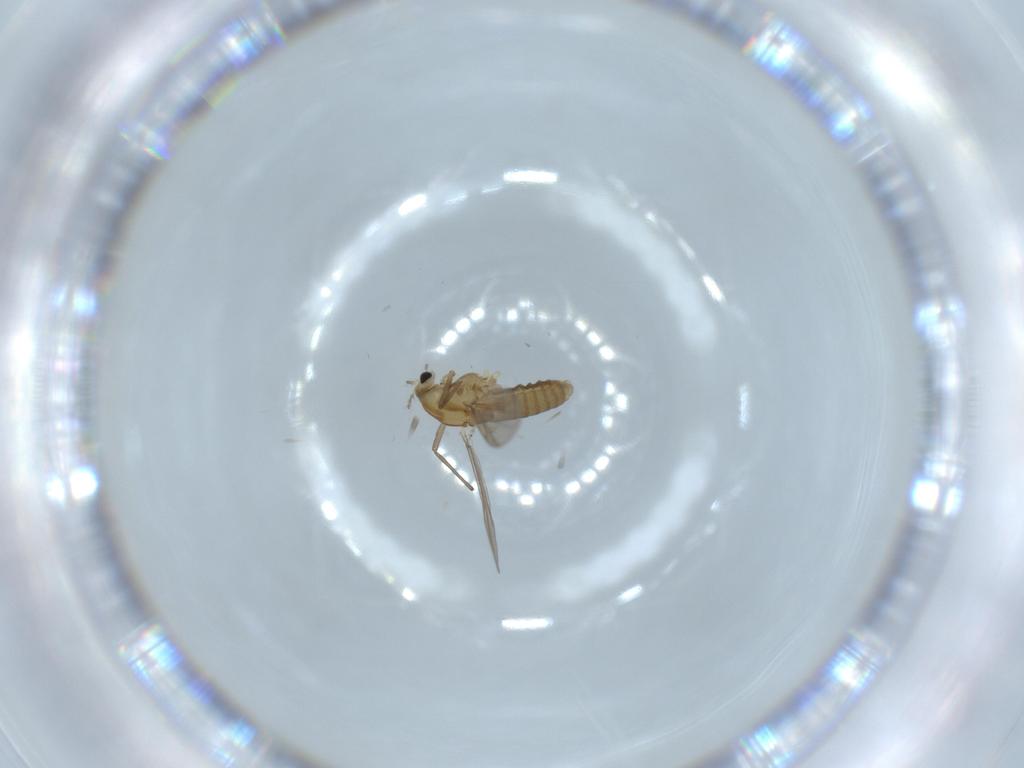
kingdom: Animalia
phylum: Arthropoda
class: Insecta
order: Diptera
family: Chironomidae
